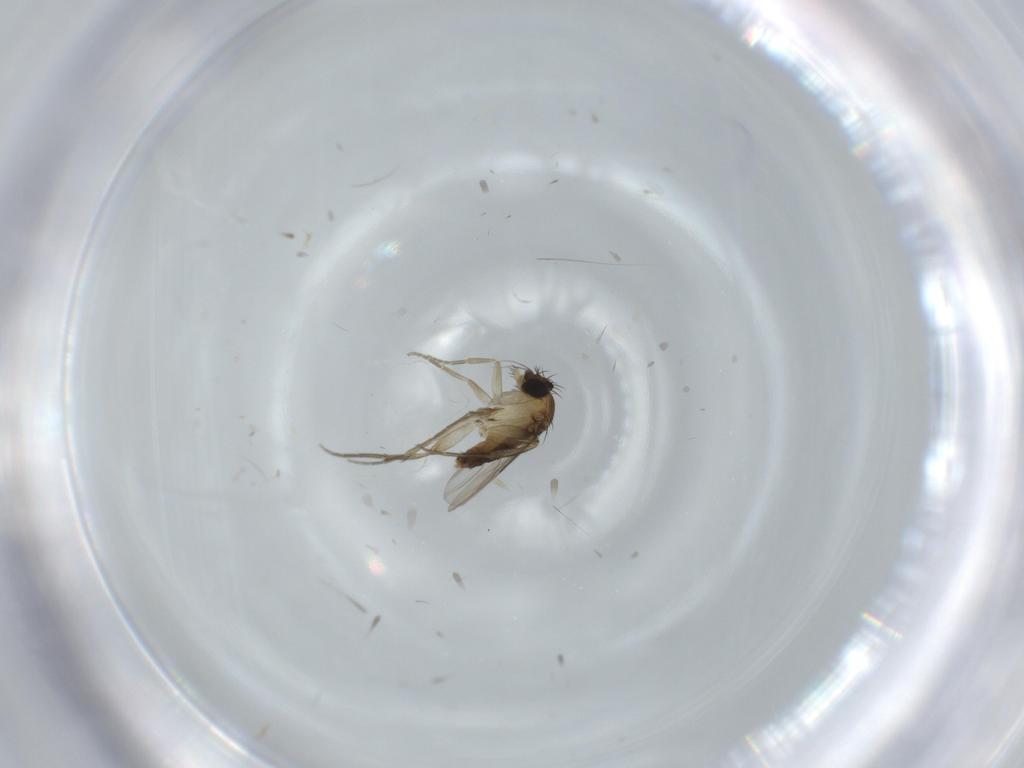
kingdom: Animalia
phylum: Arthropoda
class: Insecta
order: Diptera
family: Phoridae
